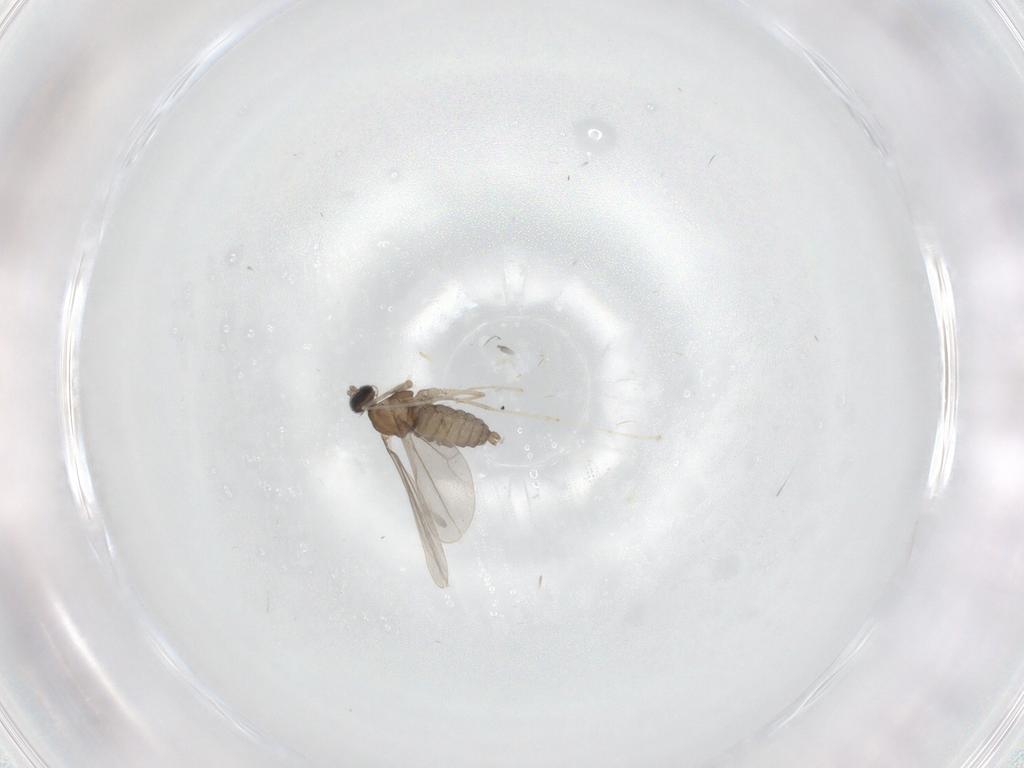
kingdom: Animalia
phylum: Arthropoda
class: Insecta
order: Diptera
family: Cecidomyiidae
